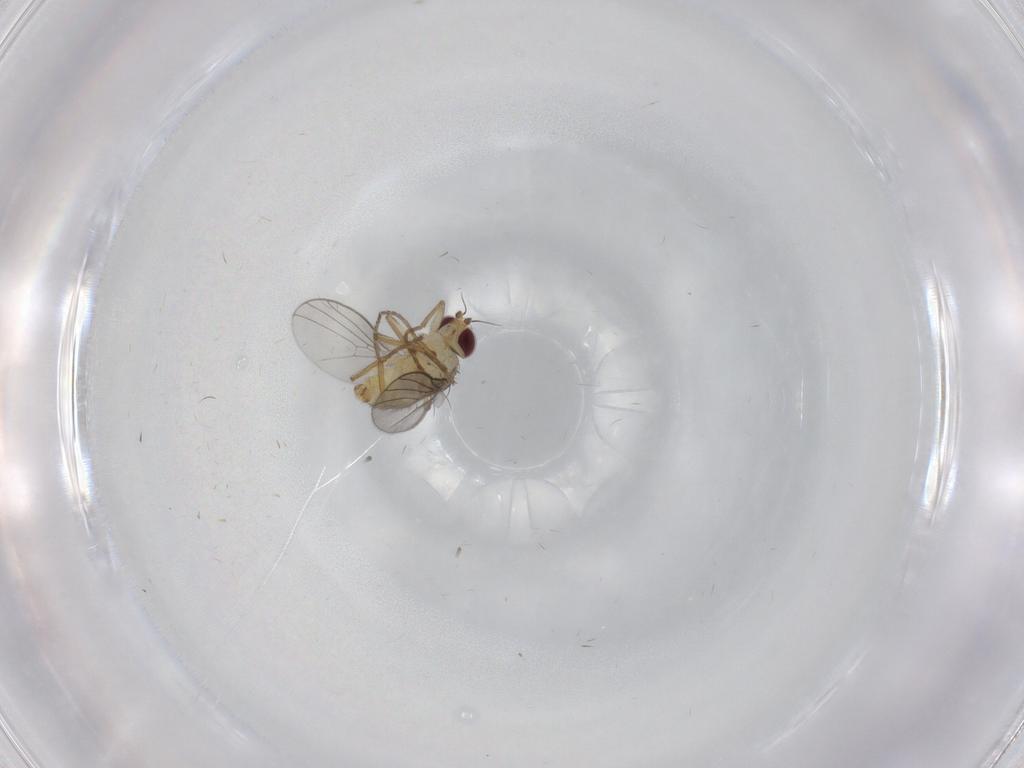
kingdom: Animalia
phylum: Arthropoda
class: Insecta
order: Diptera
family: Agromyzidae
